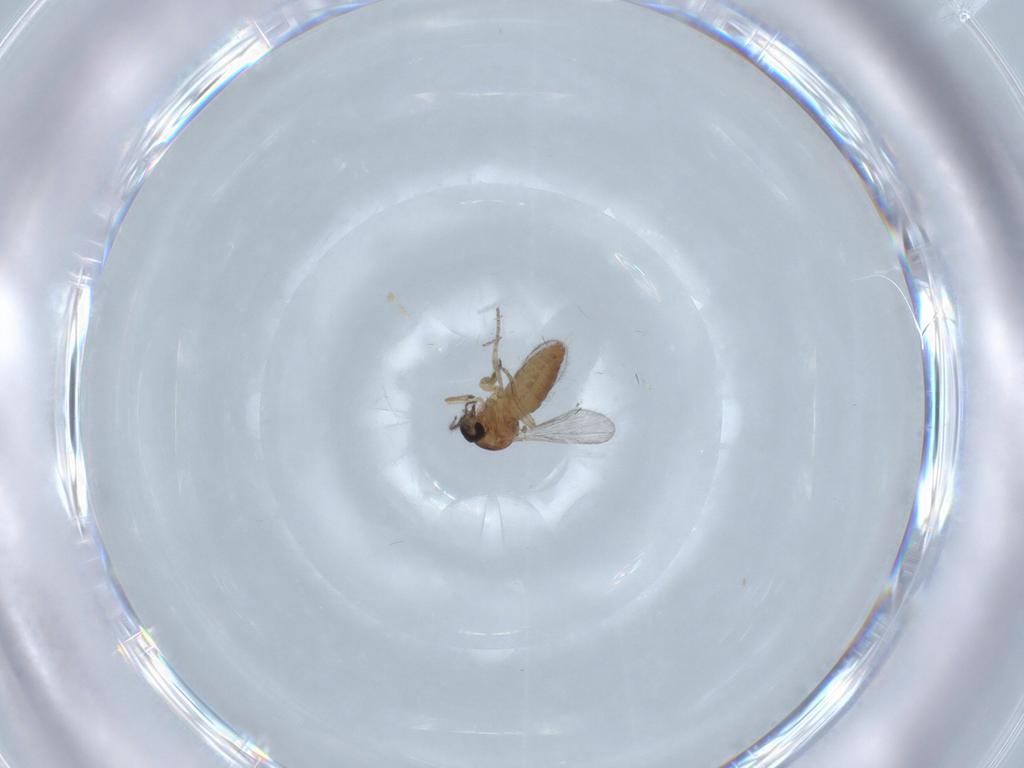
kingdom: Animalia
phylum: Arthropoda
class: Insecta
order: Diptera
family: Ceratopogonidae
